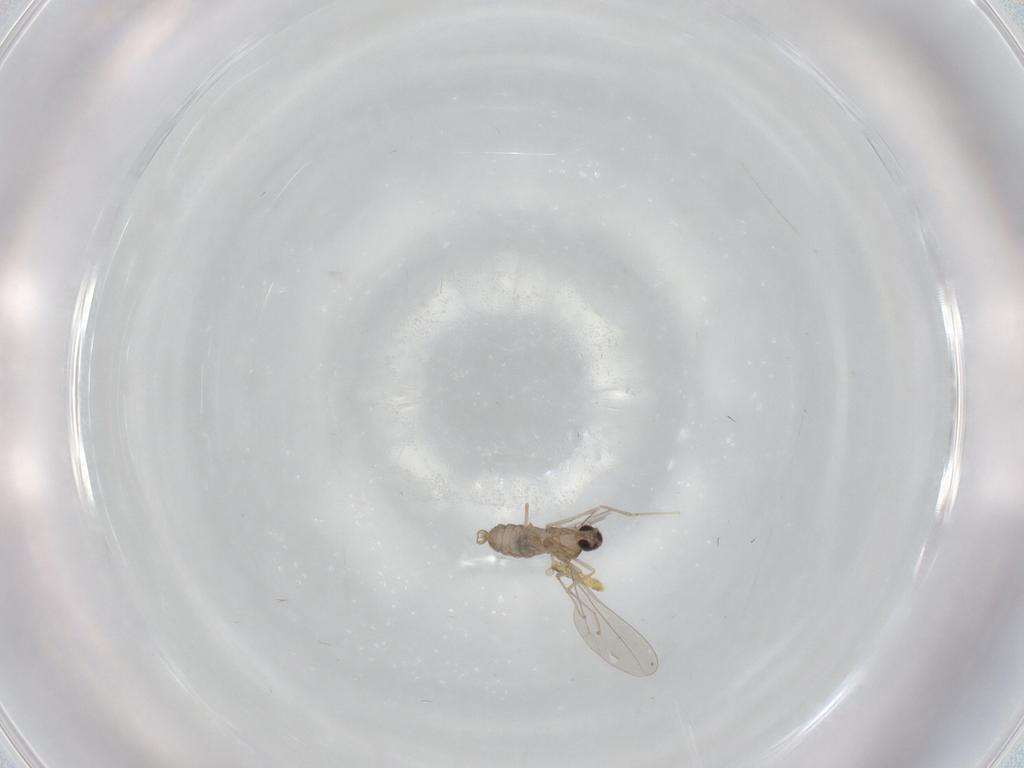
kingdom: Animalia
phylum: Arthropoda
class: Insecta
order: Diptera
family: Cecidomyiidae
